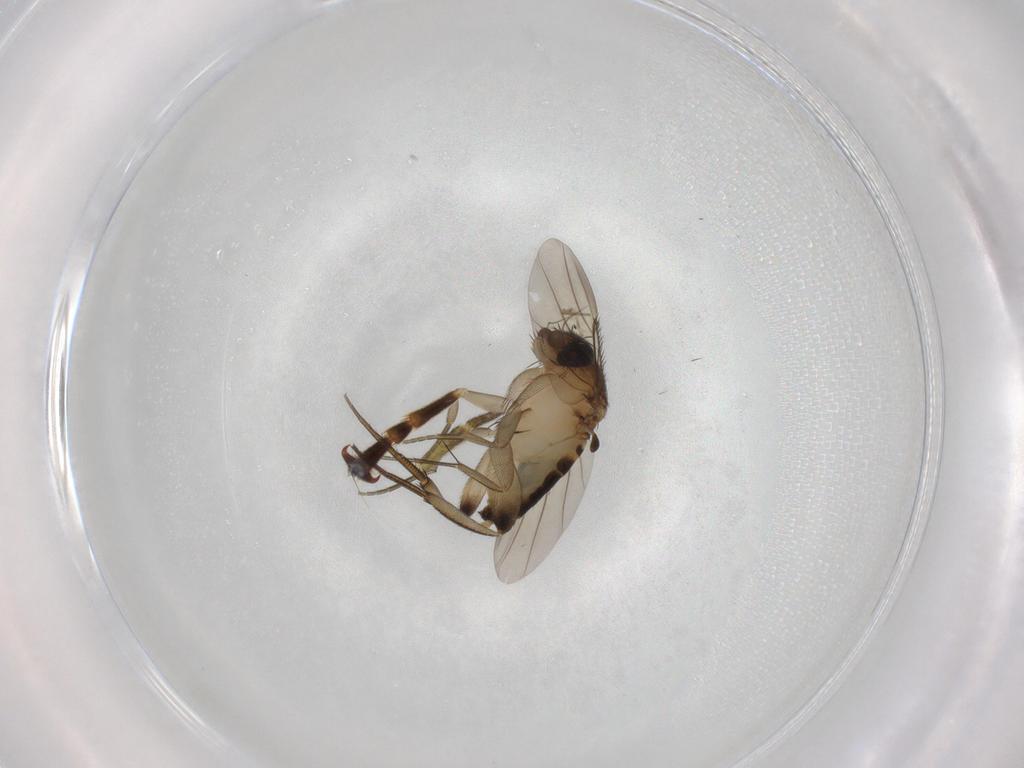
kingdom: Animalia
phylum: Arthropoda
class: Insecta
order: Diptera
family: Phoridae
